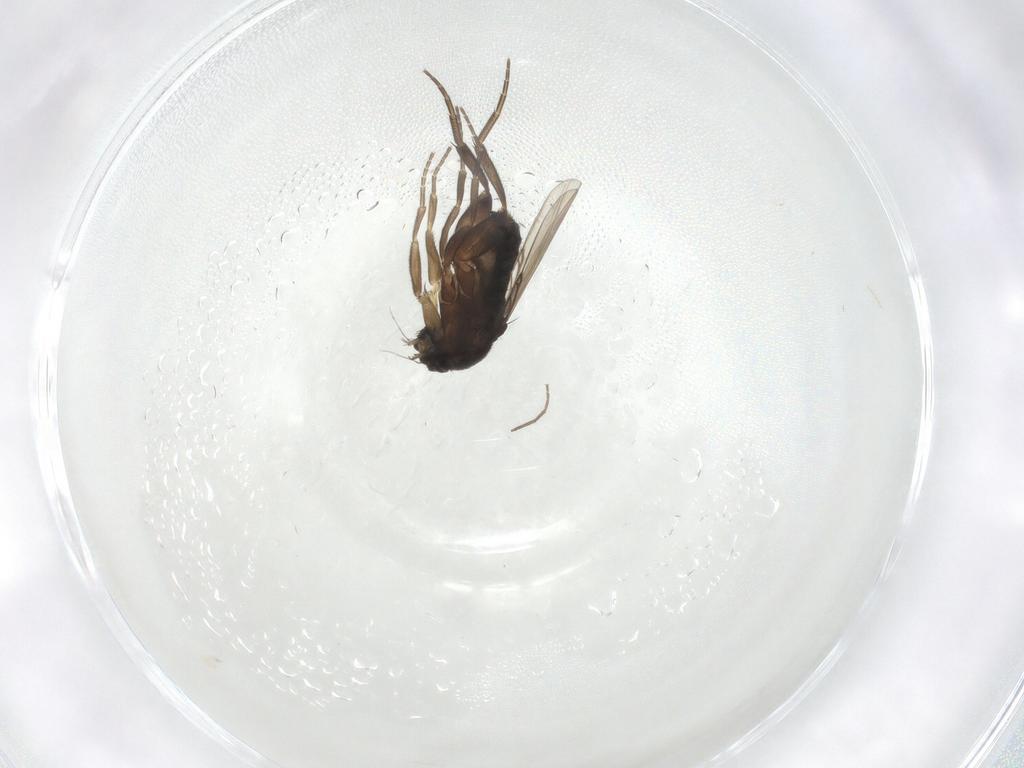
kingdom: Animalia
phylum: Arthropoda
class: Insecta
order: Diptera
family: Phoridae
